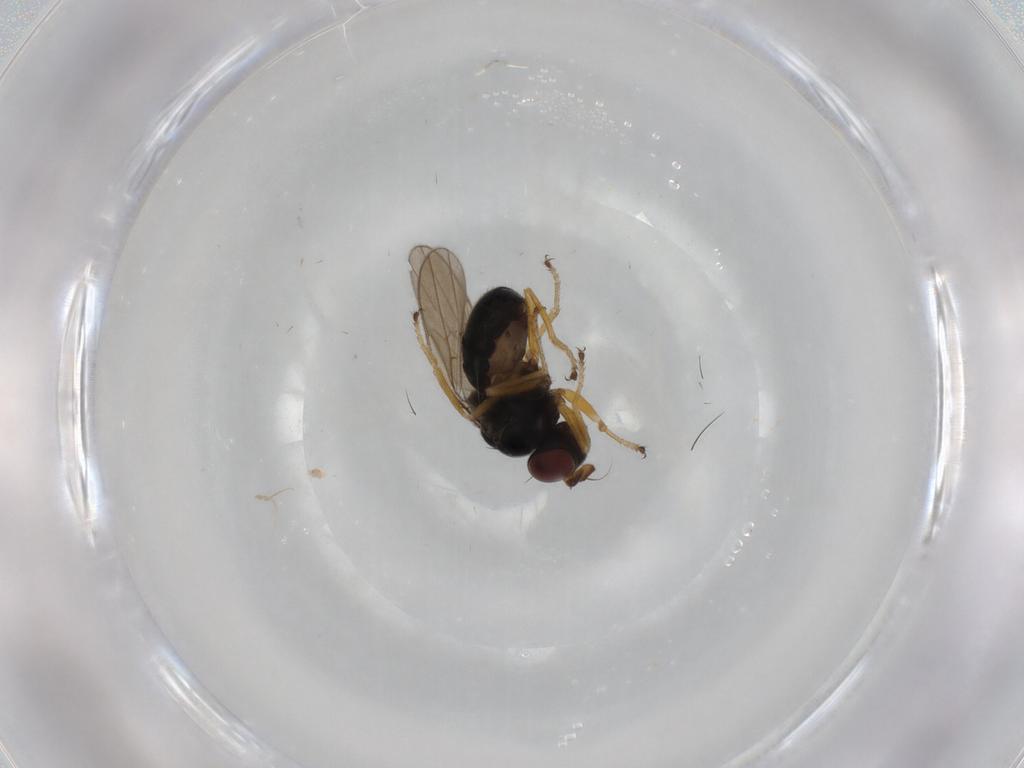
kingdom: Animalia
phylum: Arthropoda
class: Insecta
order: Diptera
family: Ephydridae
